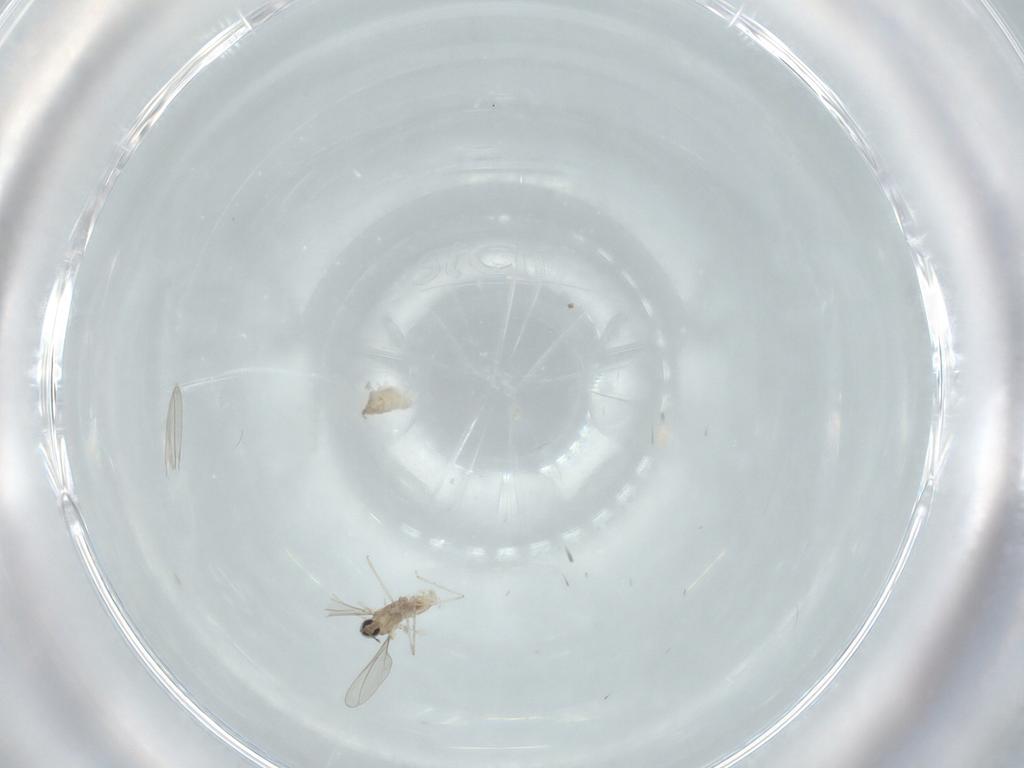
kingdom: Animalia
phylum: Arthropoda
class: Insecta
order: Diptera
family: Cecidomyiidae
